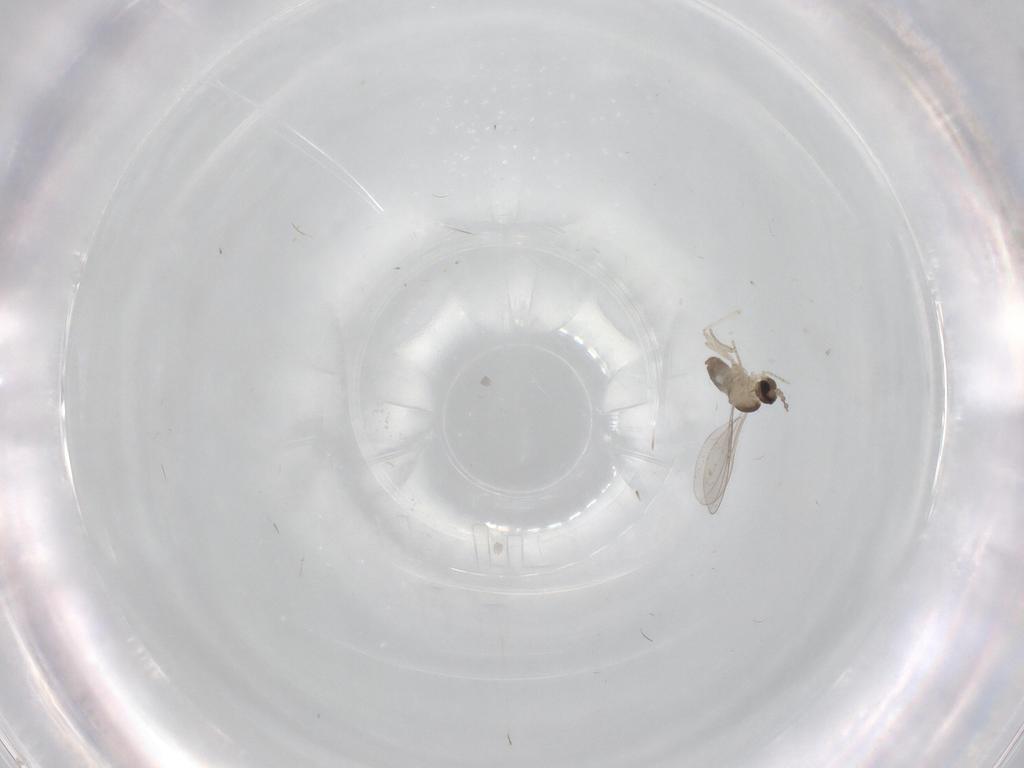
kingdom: Animalia
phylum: Arthropoda
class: Insecta
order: Diptera
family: Cecidomyiidae
